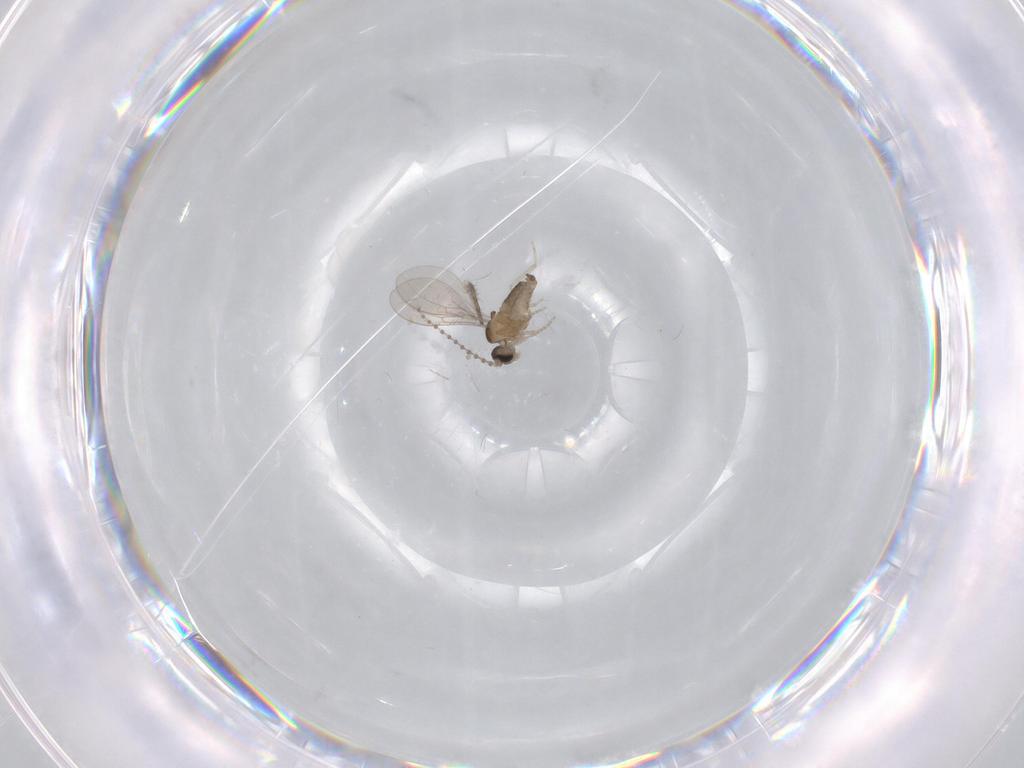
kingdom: Animalia
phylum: Arthropoda
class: Insecta
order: Diptera
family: Cecidomyiidae
